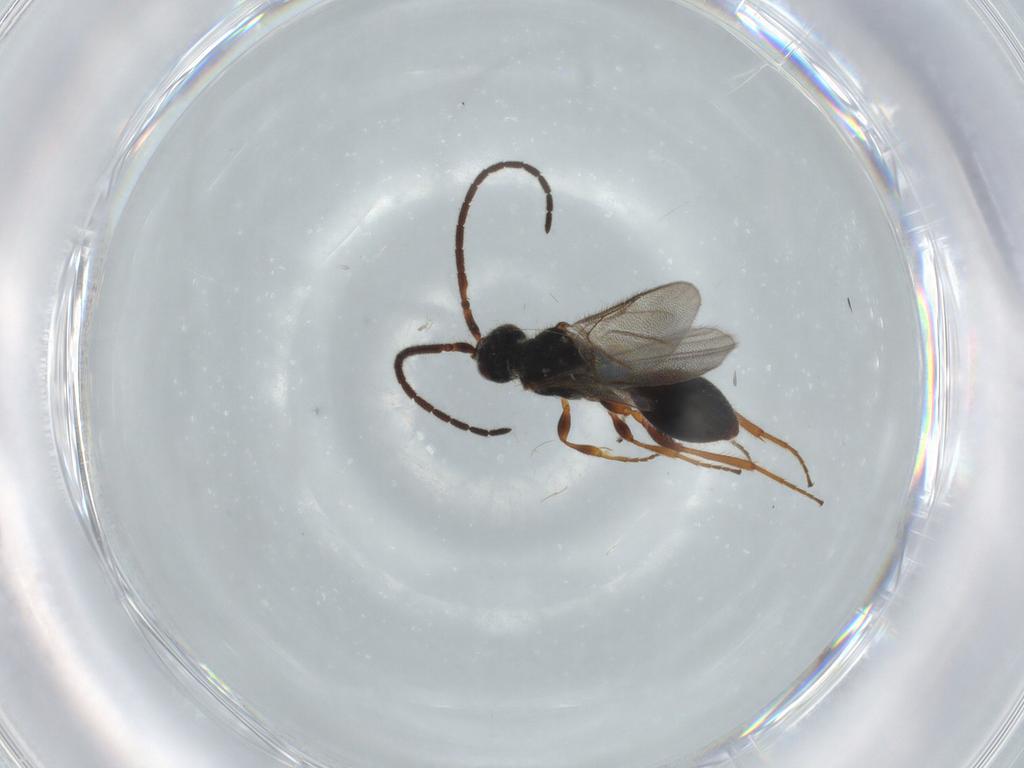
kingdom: Animalia
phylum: Arthropoda
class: Insecta
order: Hymenoptera
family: Diapriidae
